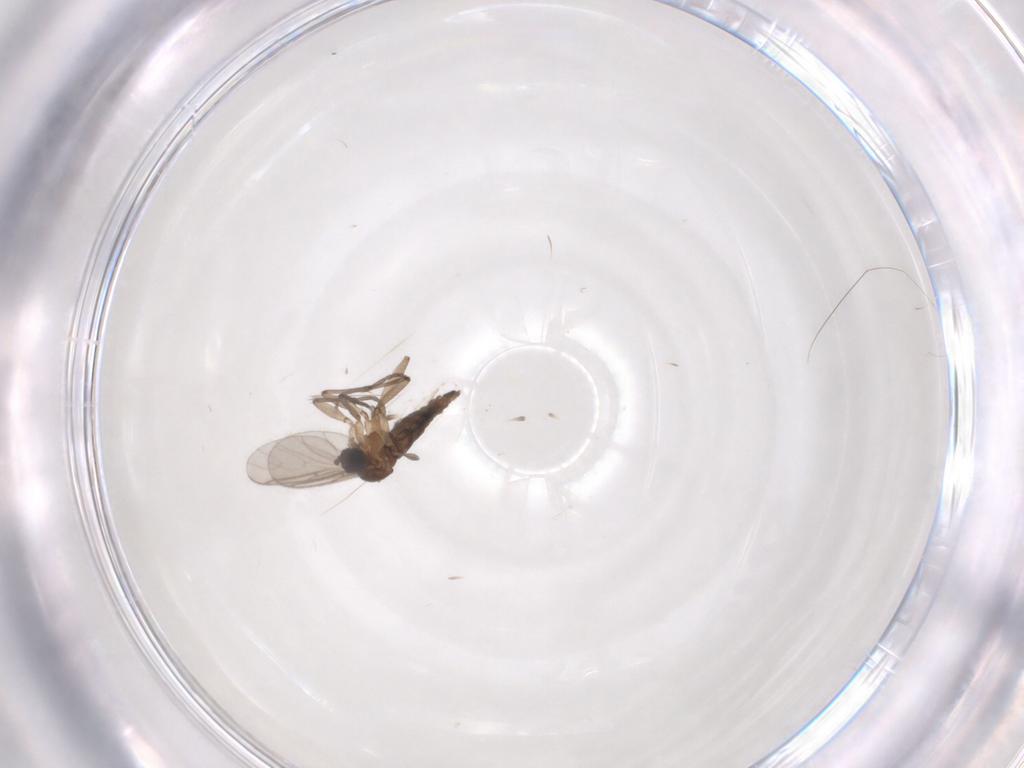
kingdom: Animalia
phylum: Arthropoda
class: Insecta
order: Diptera
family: Sciaridae
